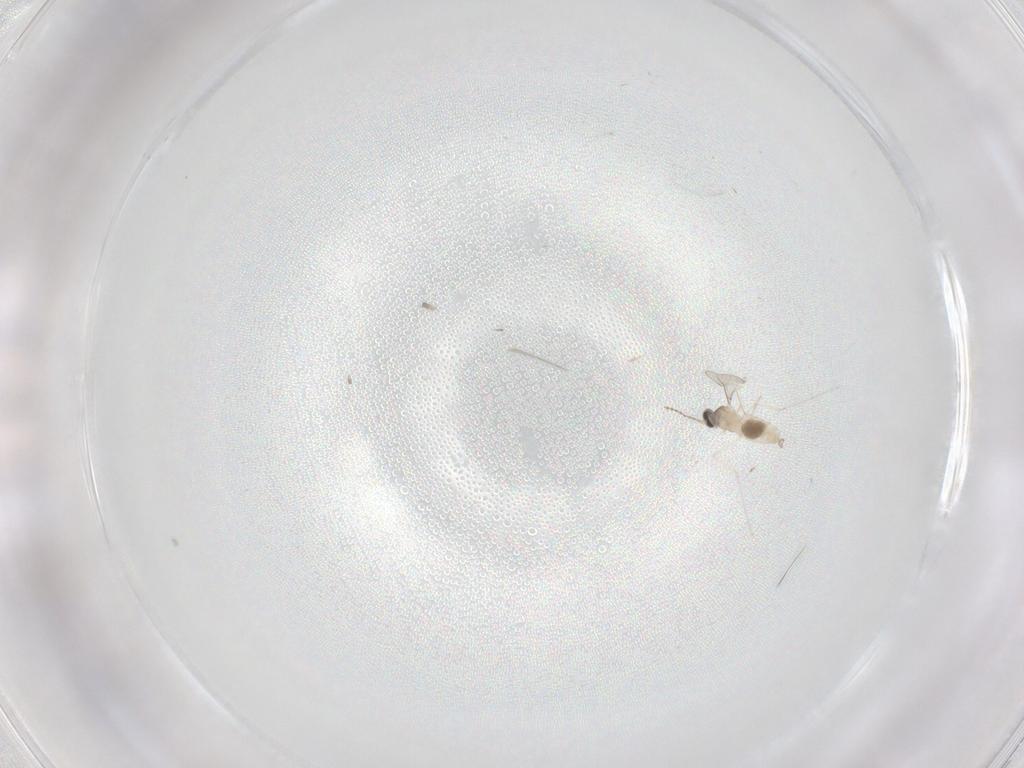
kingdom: Animalia
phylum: Arthropoda
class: Insecta
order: Diptera
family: Cecidomyiidae
